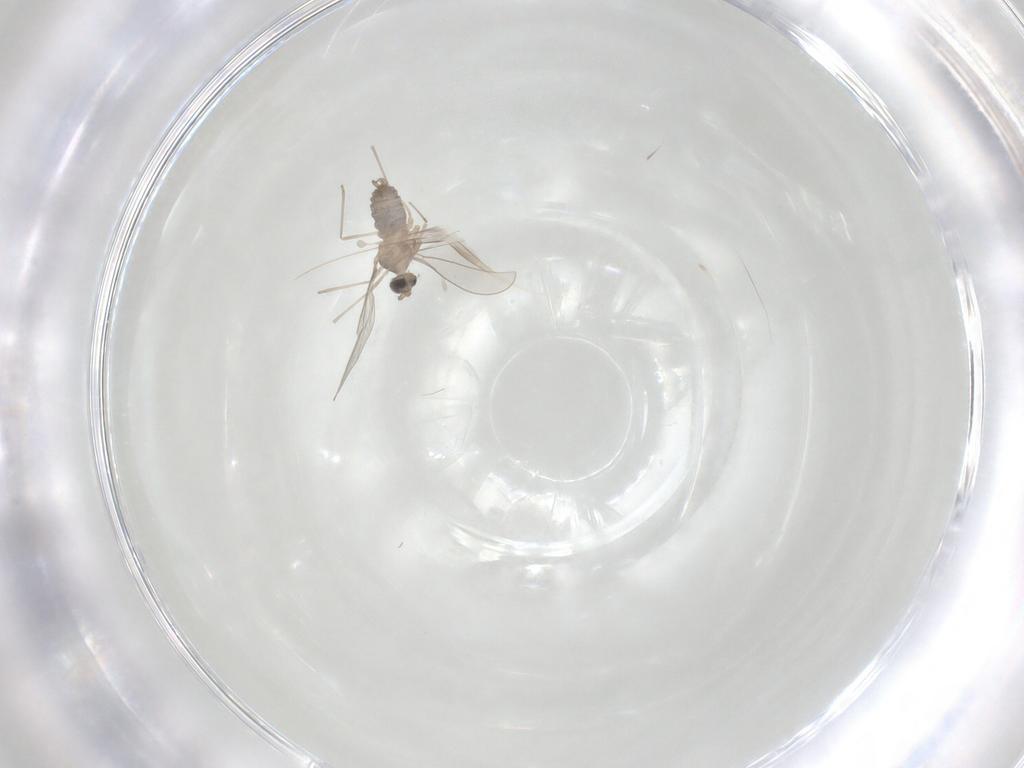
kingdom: Animalia
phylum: Arthropoda
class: Insecta
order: Diptera
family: Cecidomyiidae
